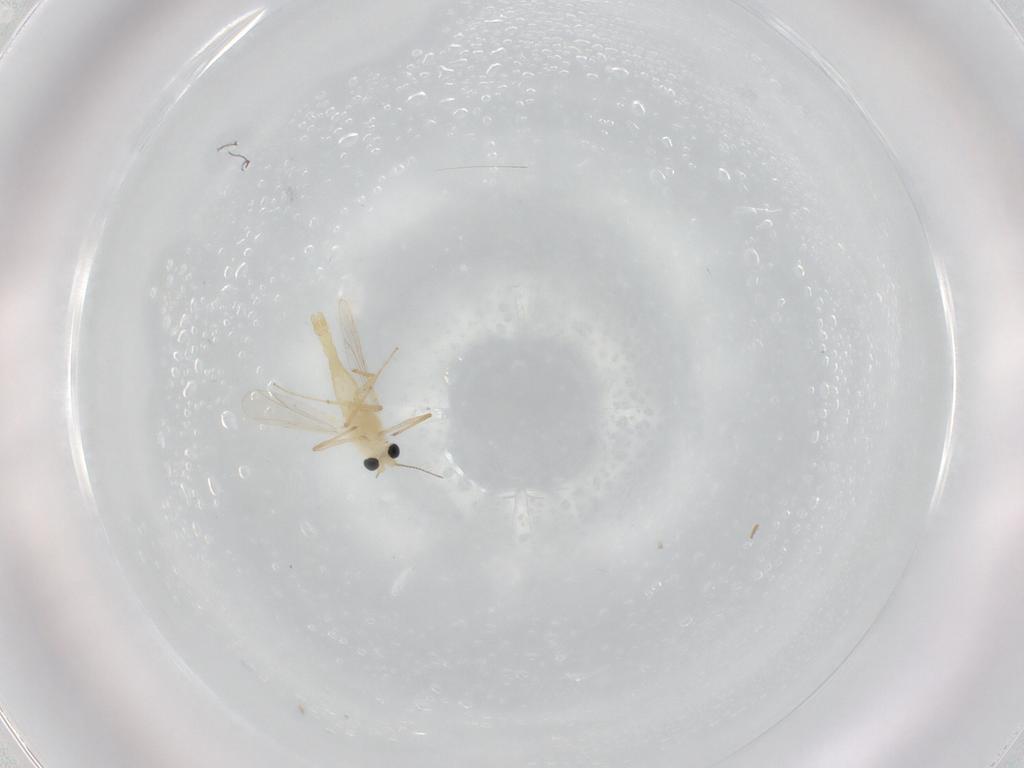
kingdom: Animalia
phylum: Arthropoda
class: Insecta
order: Diptera
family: Chironomidae
